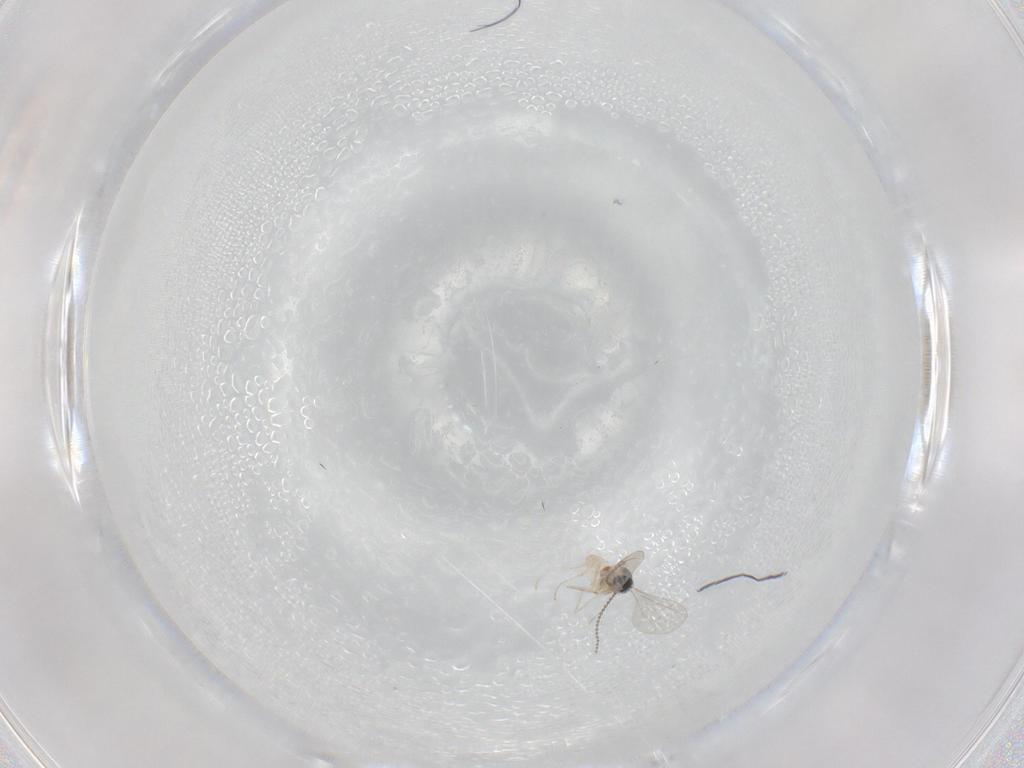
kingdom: Animalia
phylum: Arthropoda
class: Insecta
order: Diptera
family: Cecidomyiidae
